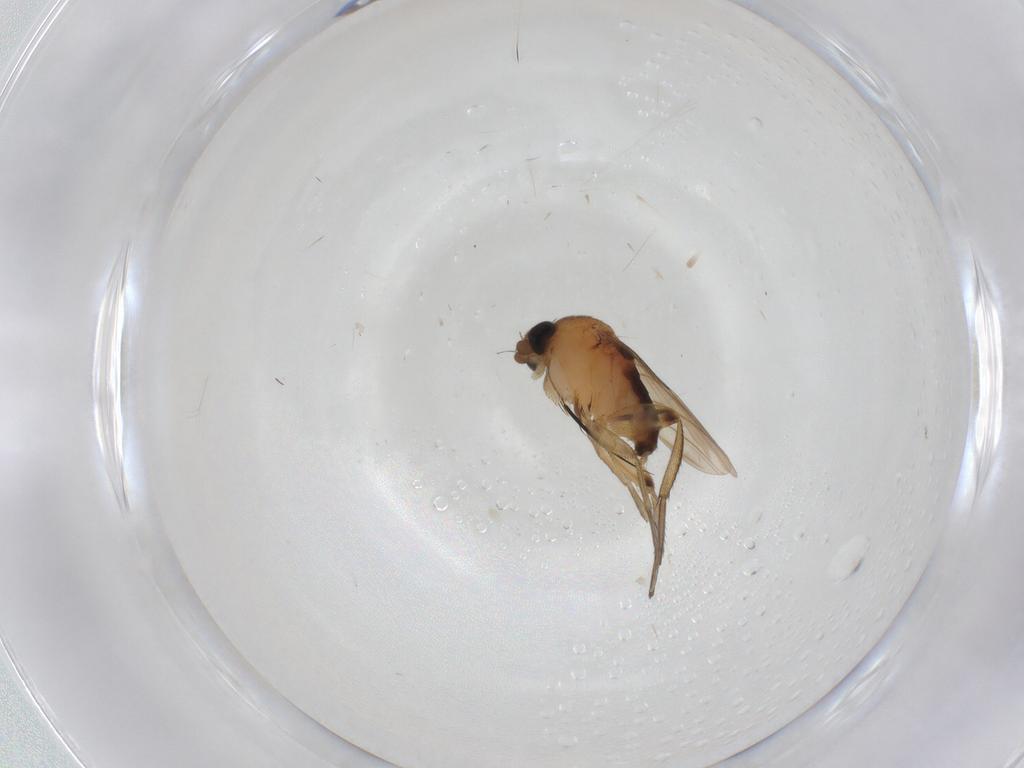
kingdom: Animalia
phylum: Arthropoda
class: Insecta
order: Diptera
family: Phoridae
